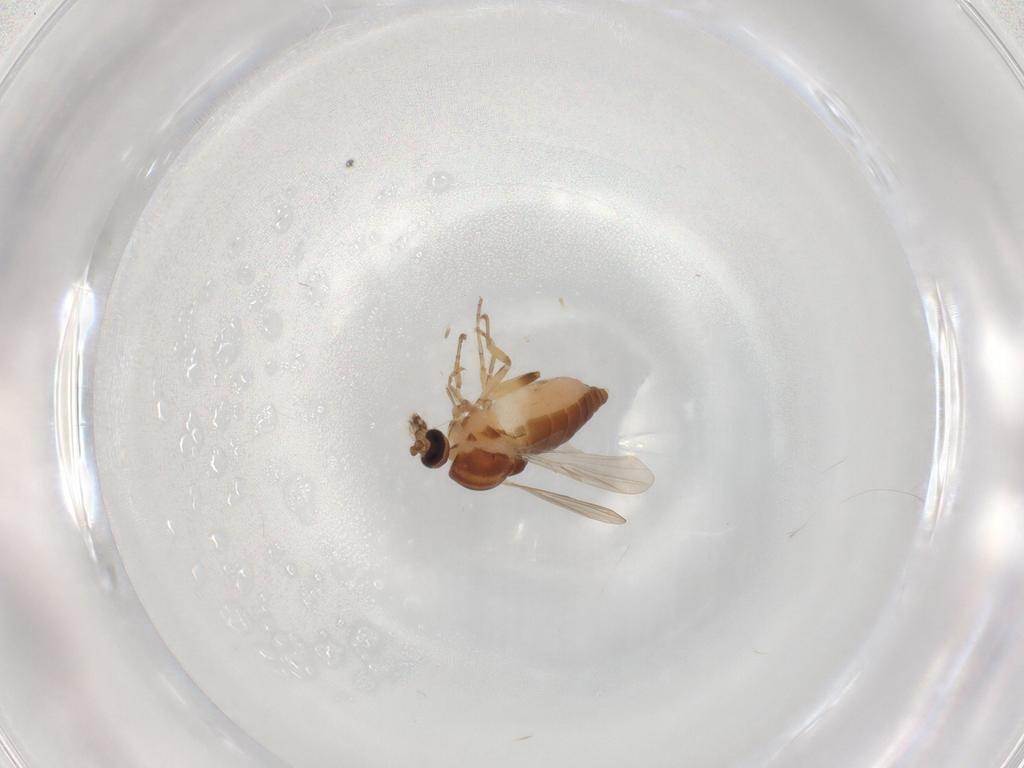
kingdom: Animalia
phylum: Arthropoda
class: Insecta
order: Diptera
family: Ceratopogonidae
